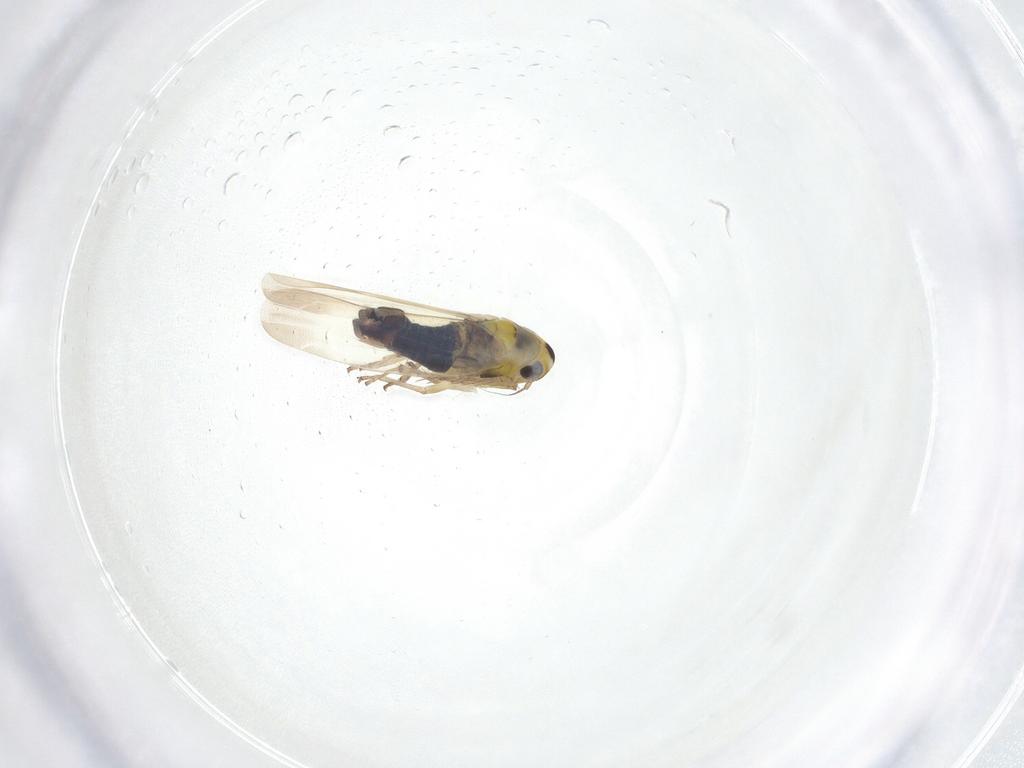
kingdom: Animalia
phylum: Arthropoda
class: Insecta
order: Hemiptera
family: Cicadellidae
